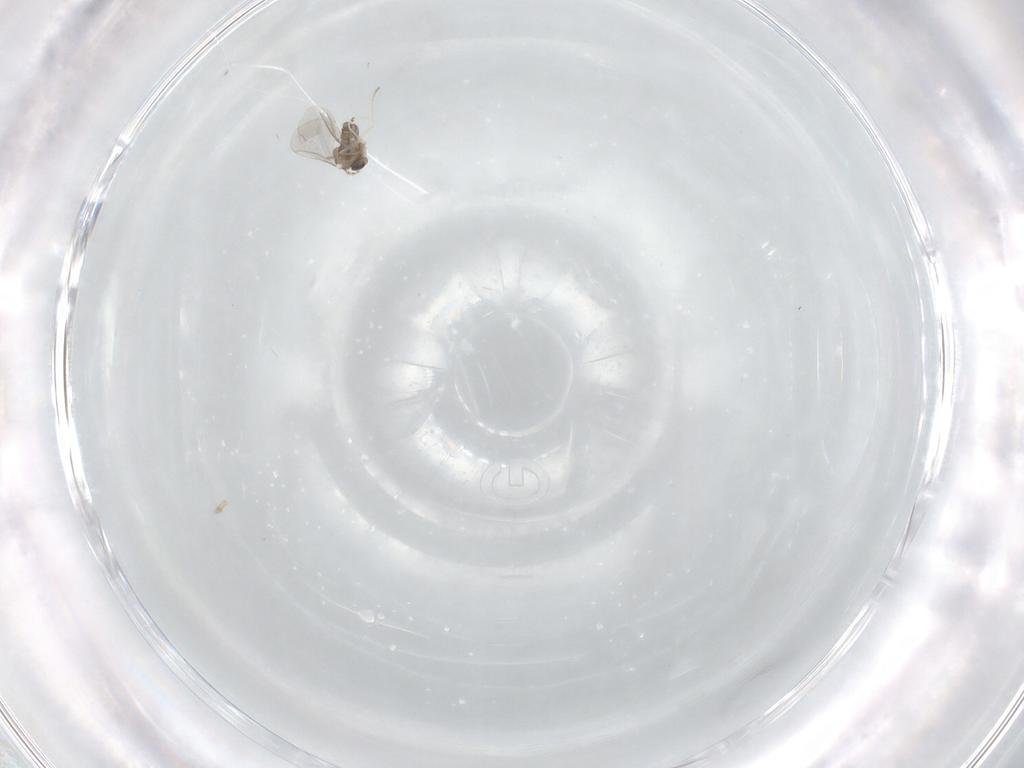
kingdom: Animalia
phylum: Arthropoda
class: Insecta
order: Diptera
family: Cecidomyiidae
